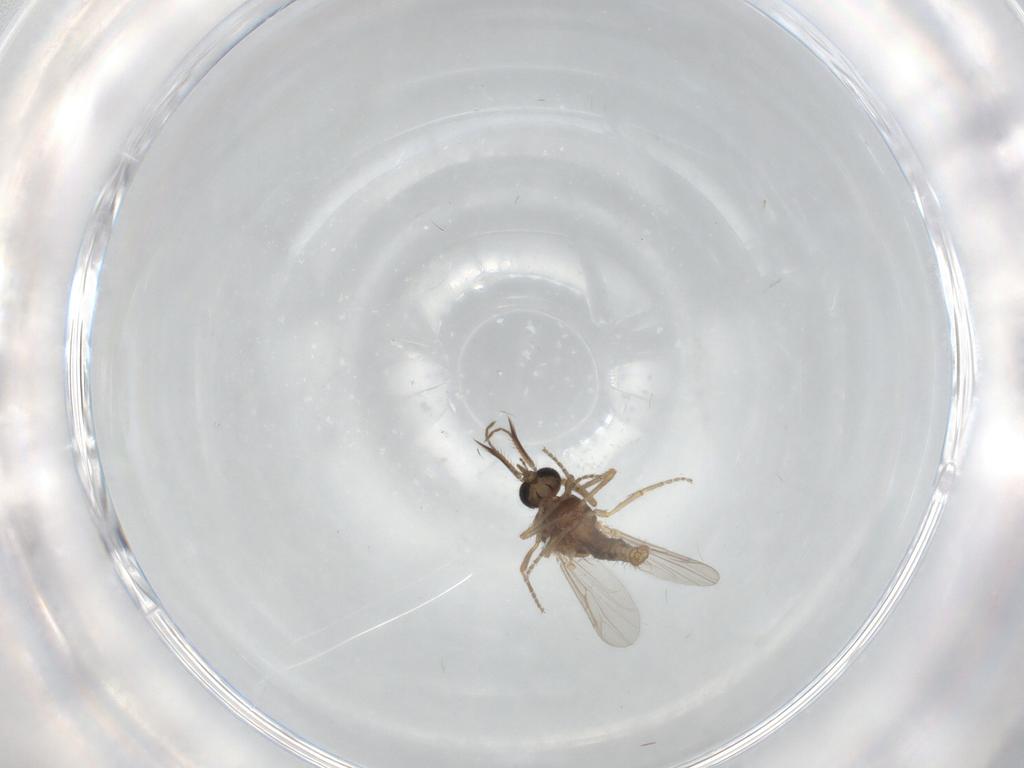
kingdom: Animalia
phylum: Arthropoda
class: Insecta
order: Diptera
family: Ceratopogonidae
